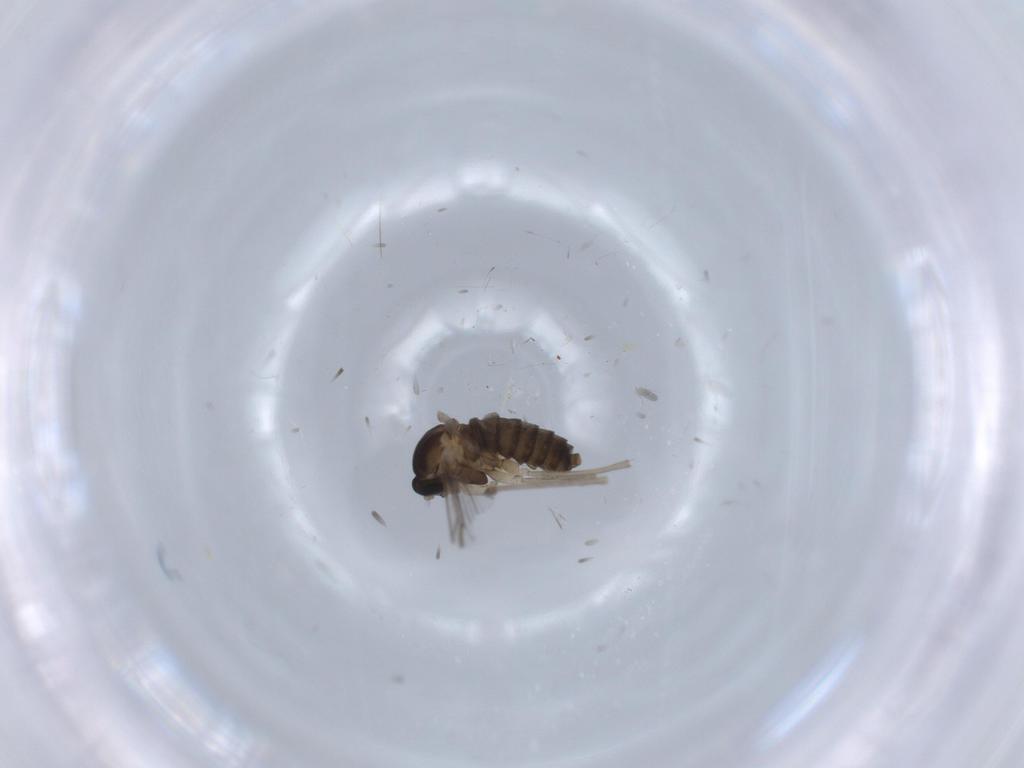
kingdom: Animalia
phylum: Arthropoda
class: Insecta
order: Diptera
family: Cecidomyiidae
